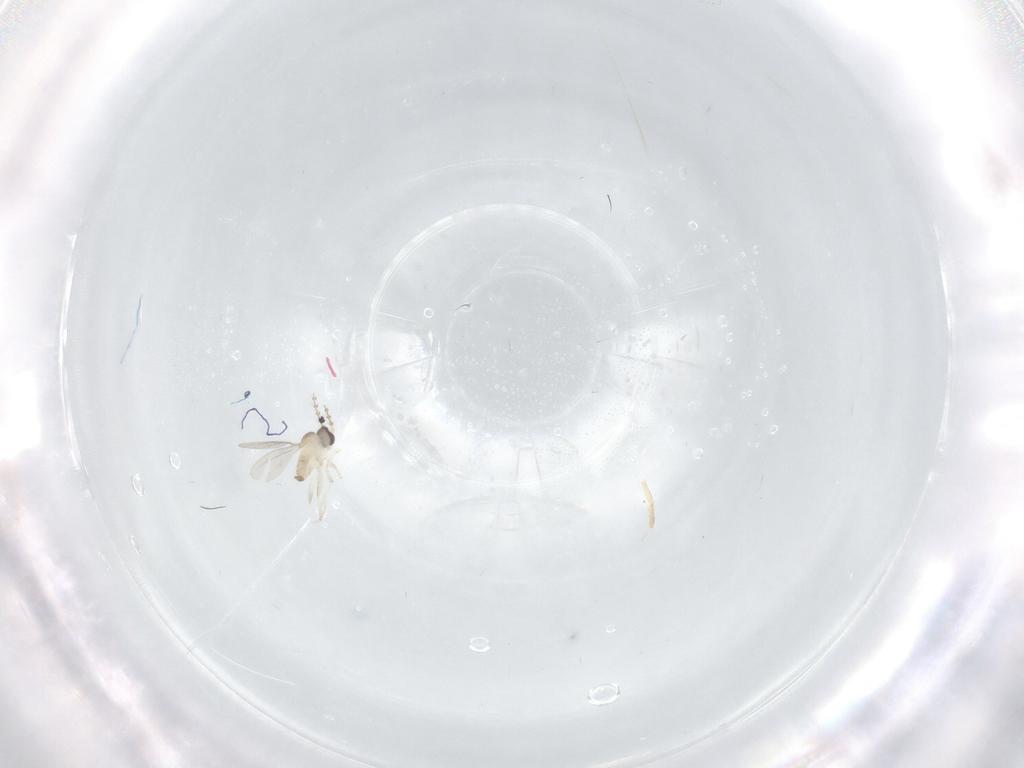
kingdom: Animalia
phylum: Arthropoda
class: Insecta
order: Diptera
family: Cecidomyiidae
